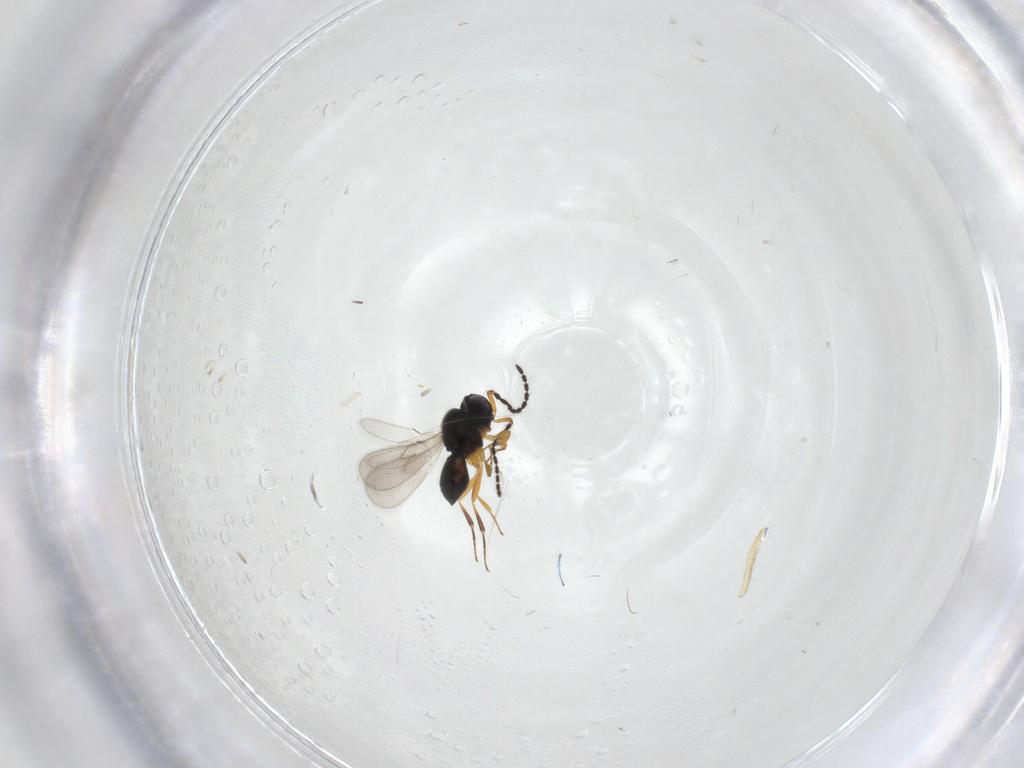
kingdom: Animalia
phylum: Arthropoda
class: Insecta
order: Hymenoptera
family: Scelionidae
